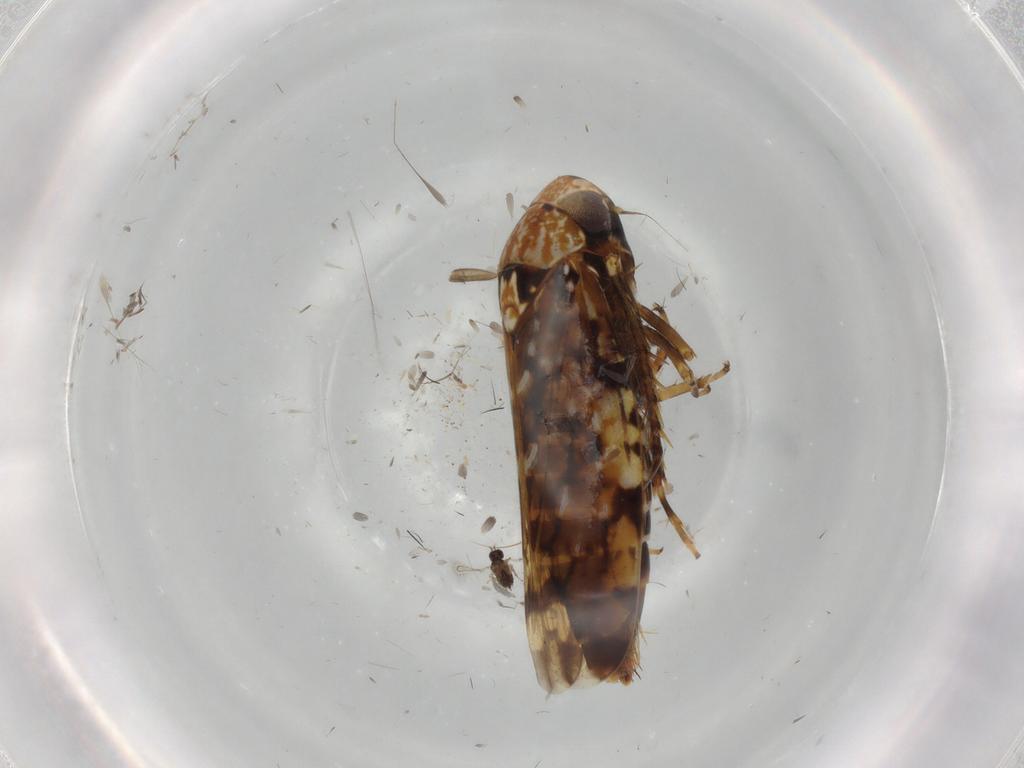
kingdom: Animalia
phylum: Arthropoda
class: Insecta
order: Hemiptera
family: Cicadellidae
